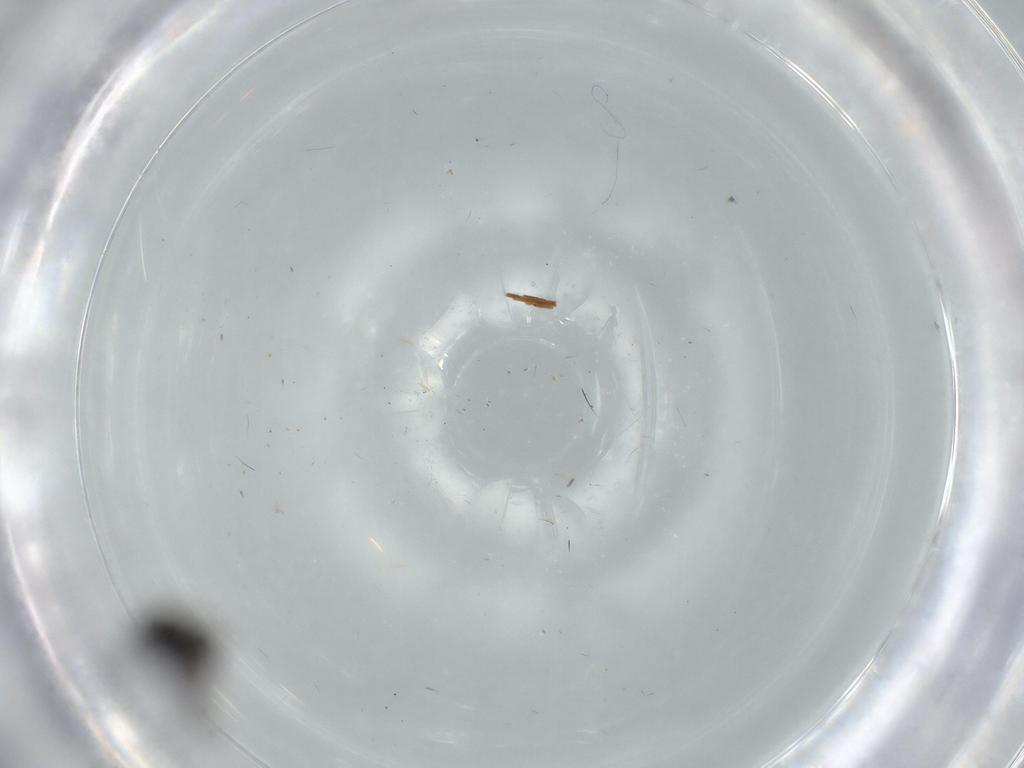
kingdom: Animalia
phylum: Arthropoda
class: Insecta
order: Diptera
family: Sciaridae
